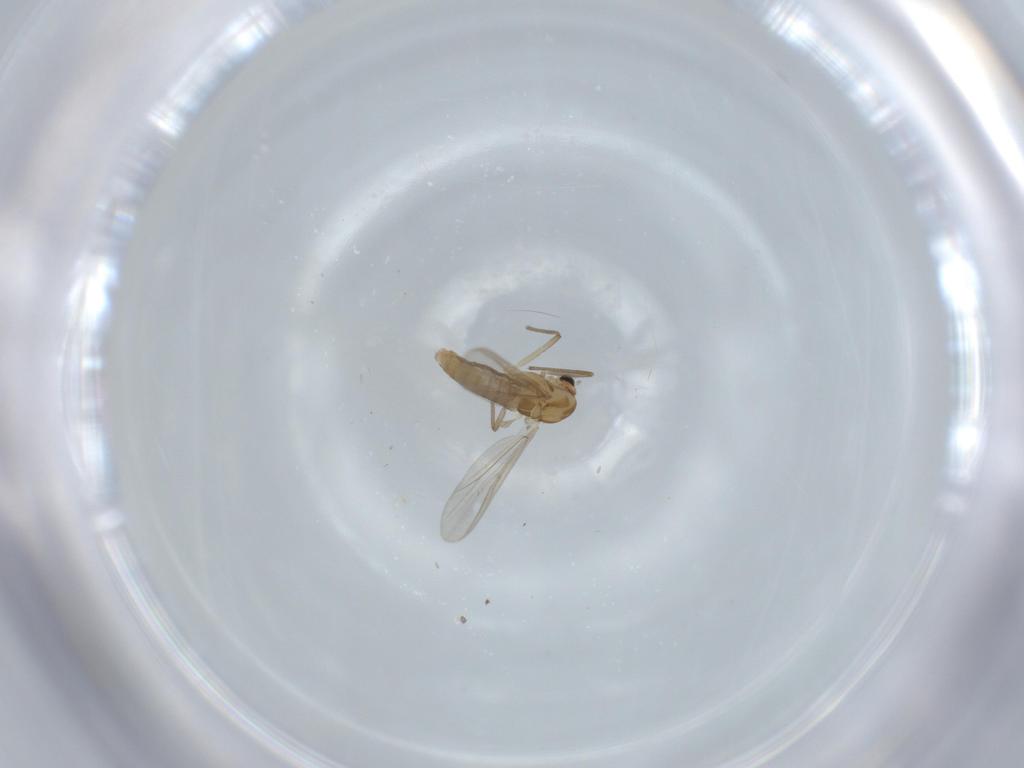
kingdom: Animalia
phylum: Arthropoda
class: Insecta
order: Diptera
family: Chironomidae
